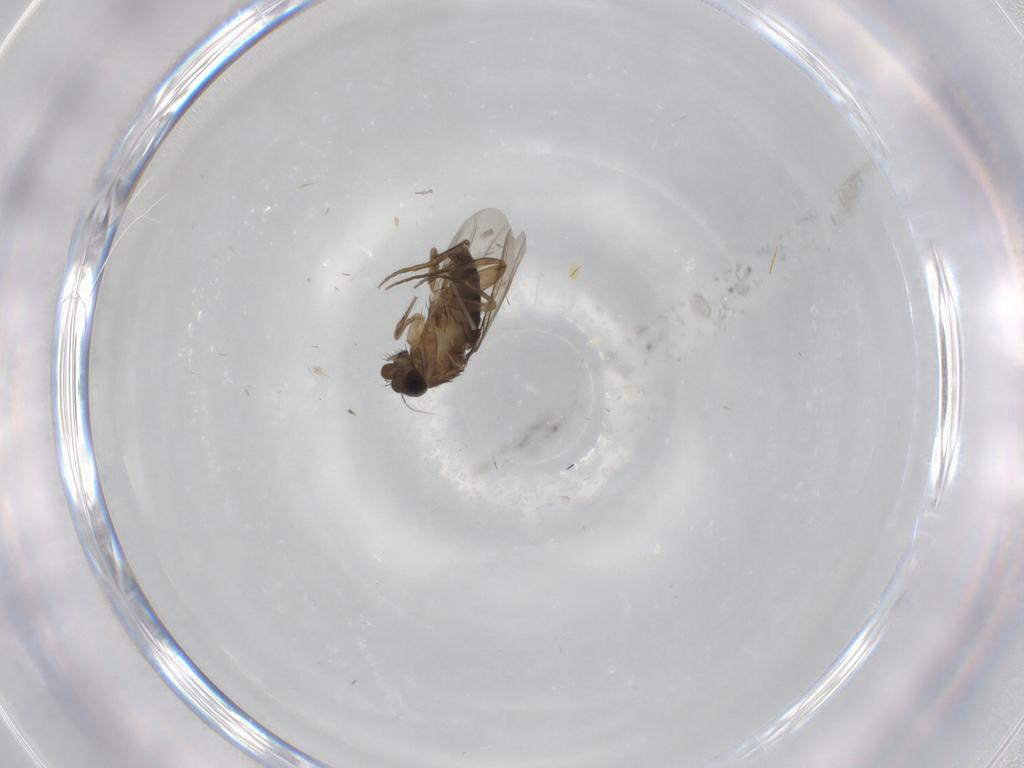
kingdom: Animalia
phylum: Arthropoda
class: Insecta
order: Diptera
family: Phoridae
